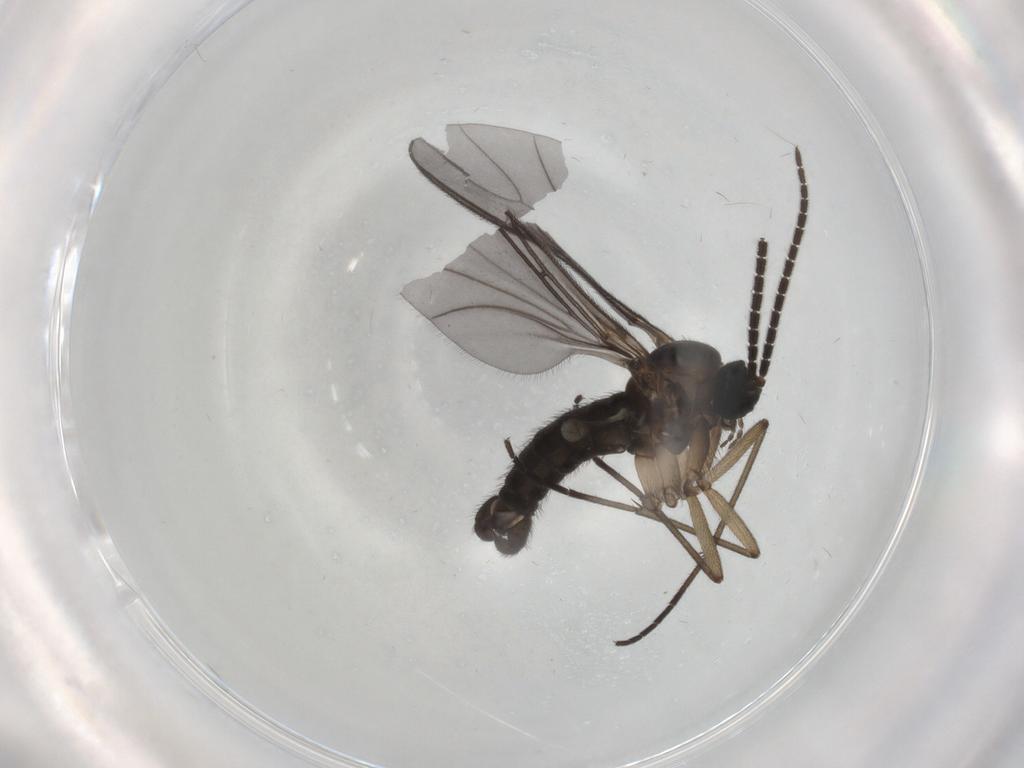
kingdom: Animalia
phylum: Arthropoda
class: Insecta
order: Diptera
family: Sciaridae
